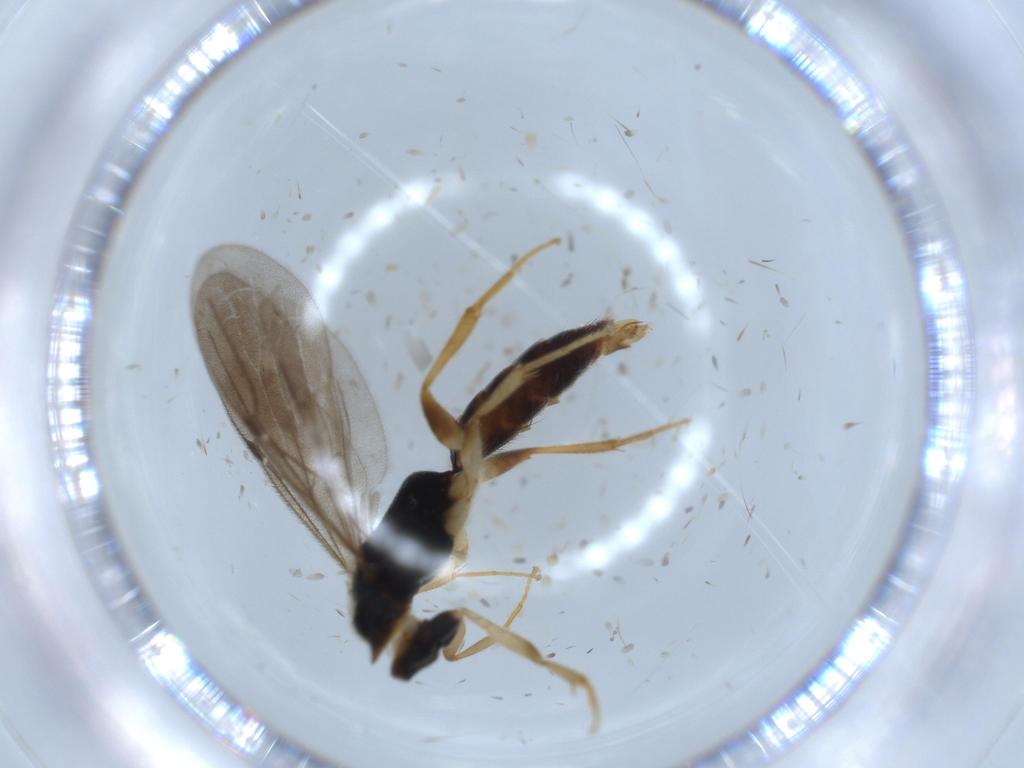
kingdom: Animalia
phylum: Arthropoda
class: Insecta
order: Hymenoptera
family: Bethylidae
